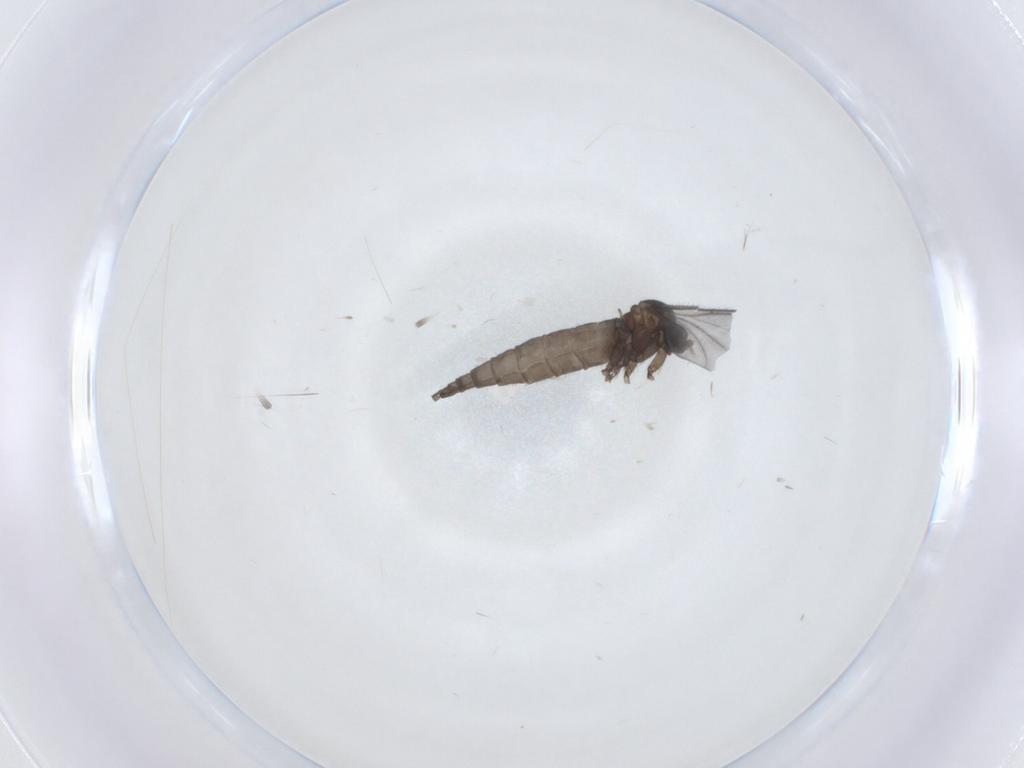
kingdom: Animalia
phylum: Arthropoda
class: Insecta
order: Diptera
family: Sciaridae
